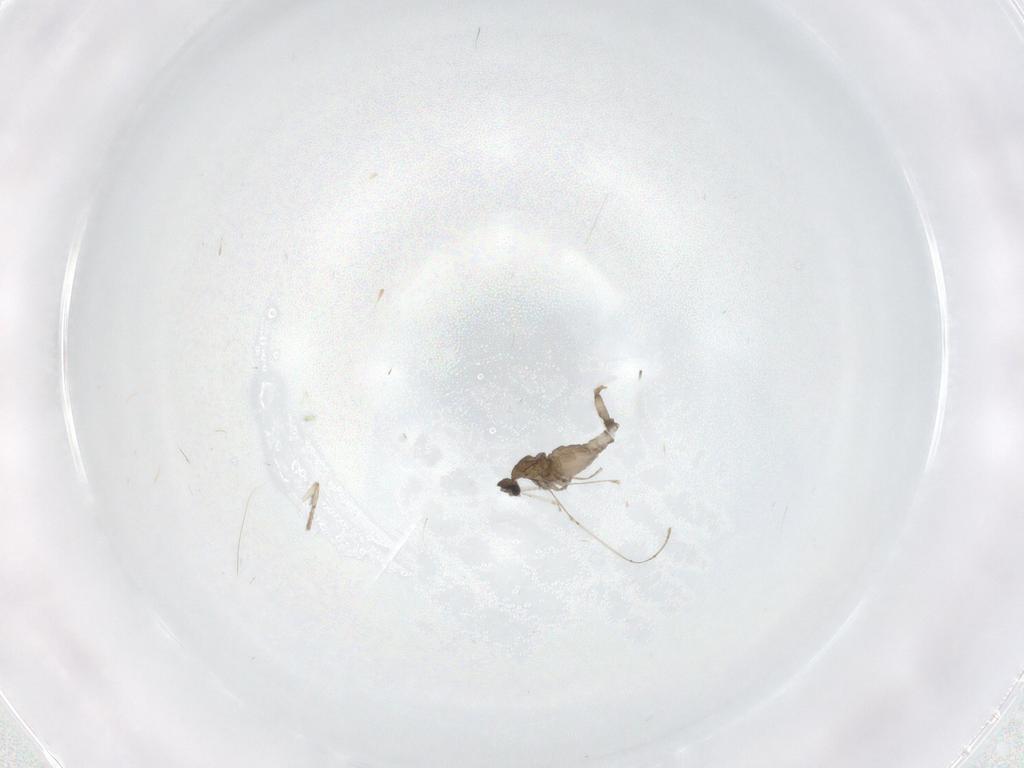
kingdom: Animalia
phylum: Arthropoda
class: Insecta
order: Diptera
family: Cecidomyiidae
